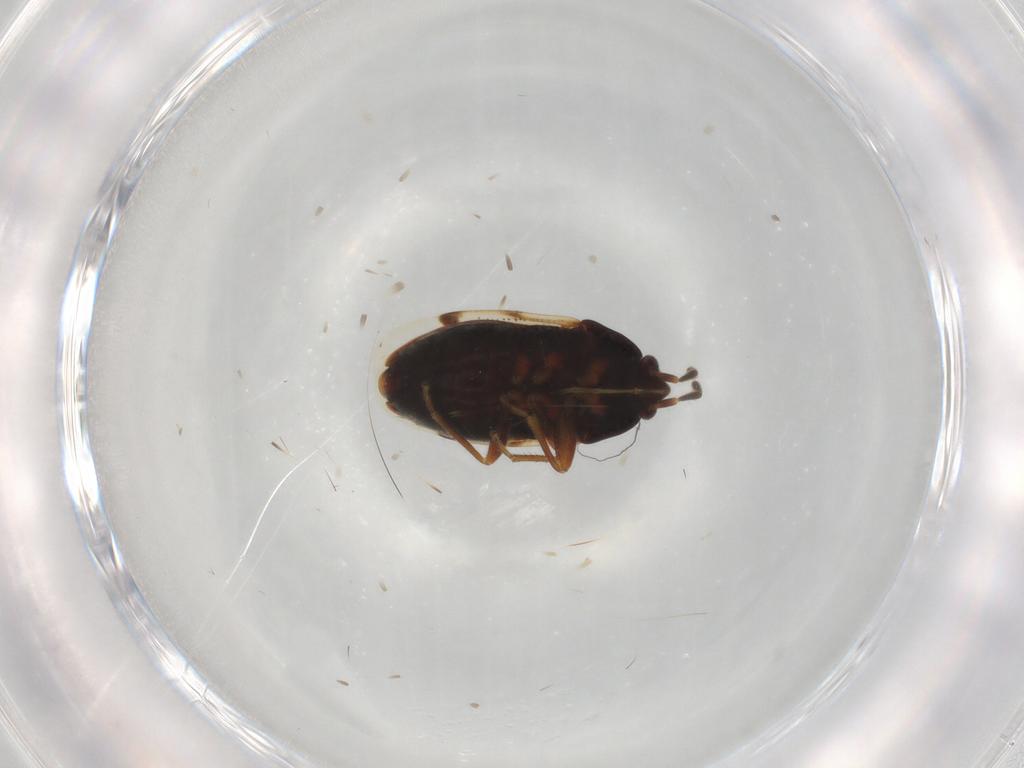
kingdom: Animalia
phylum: Arthropoda
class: Insecta
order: Hemiptera
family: Rhyparochromidae
